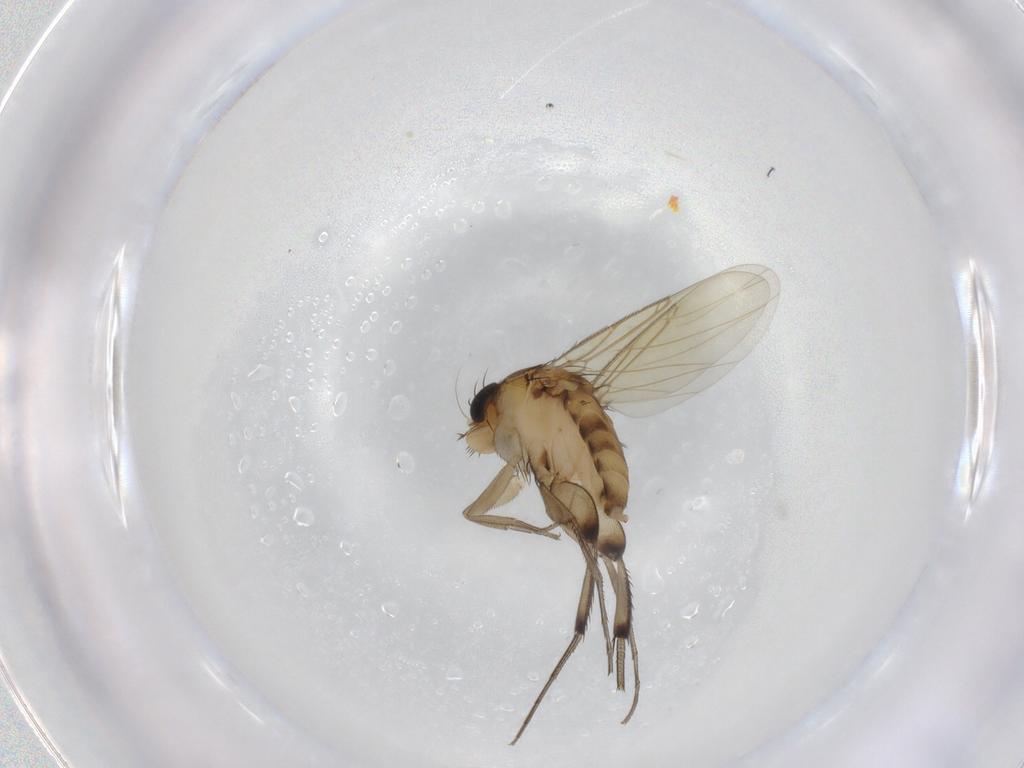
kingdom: Animalia
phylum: Arthropoda
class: Insecta
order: Diptera
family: Phoridae
